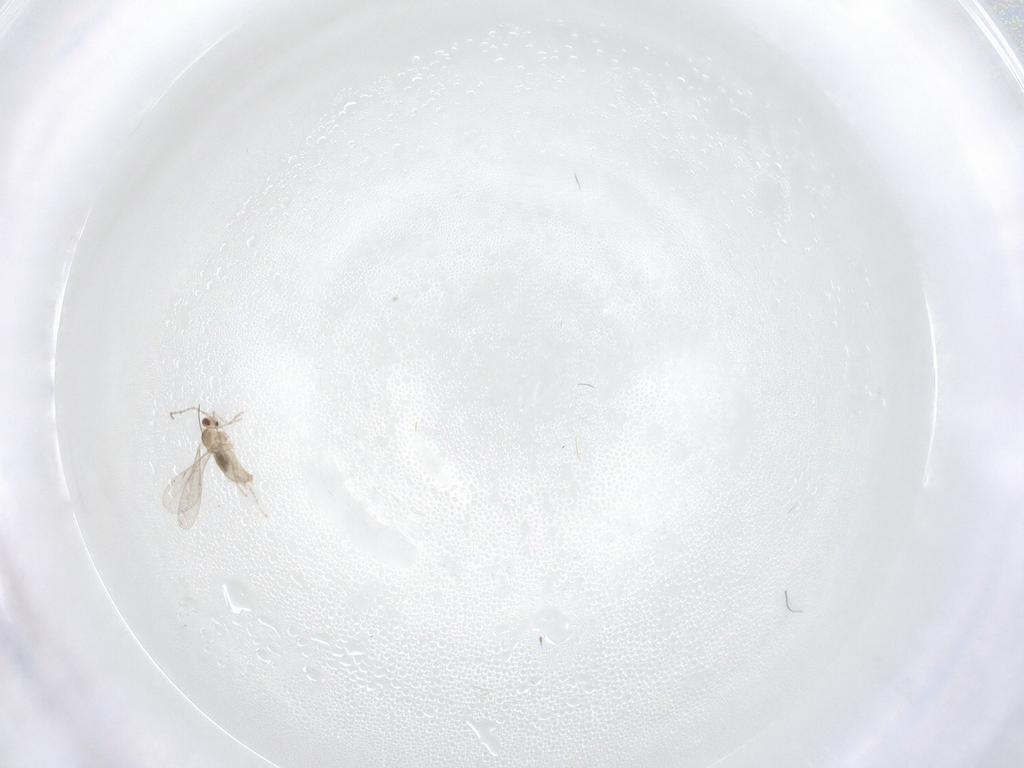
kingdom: Animalia
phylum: Arthropoda
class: Insecta
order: Diptera
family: Cecidomyiidae
